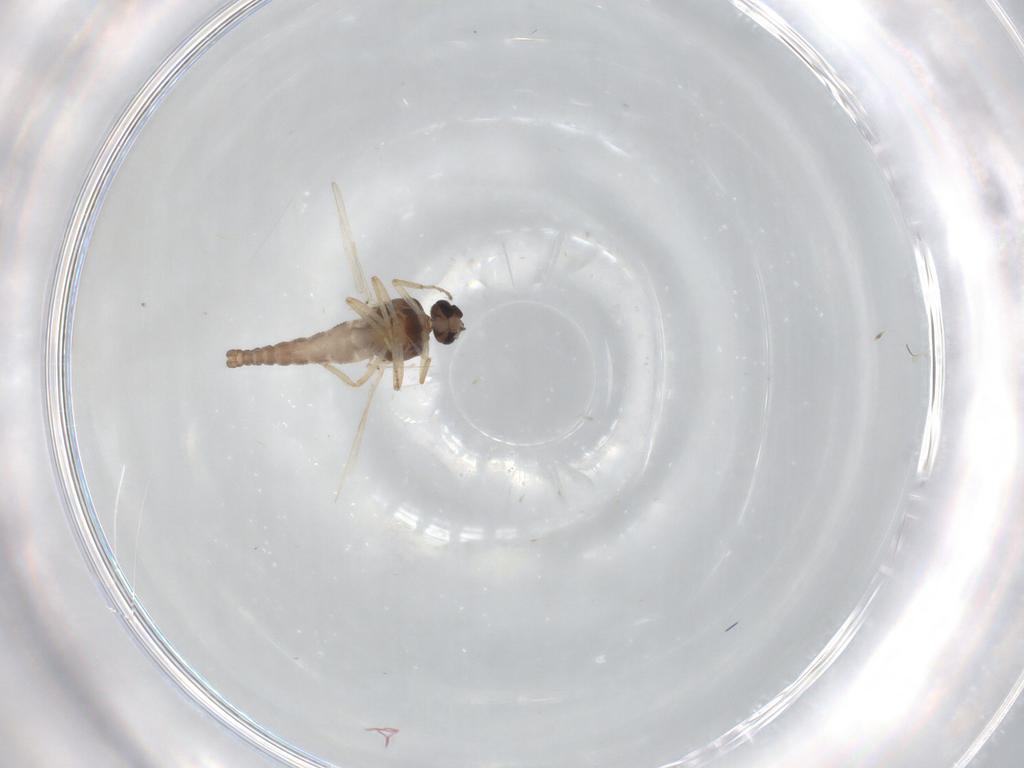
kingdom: Animalia
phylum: Arthropoda
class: Insecta
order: Diptera
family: Ceratopogonidae
